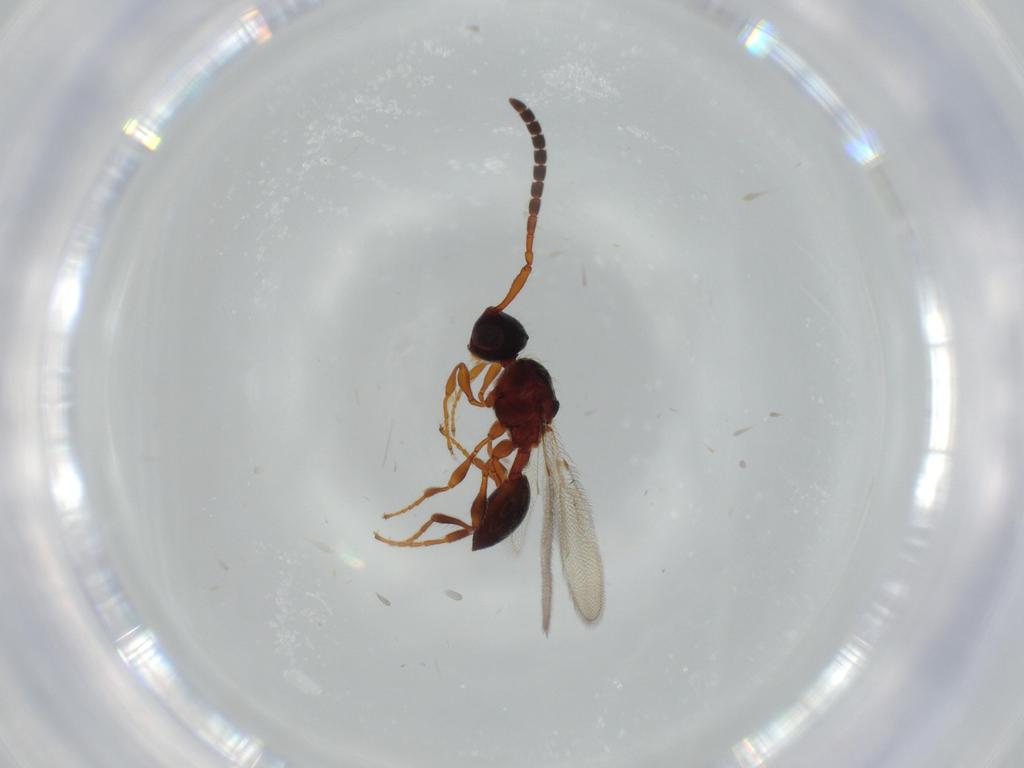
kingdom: Animalia
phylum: Arthropoda
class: Insecta
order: Hymenoptera
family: Diapriidae
